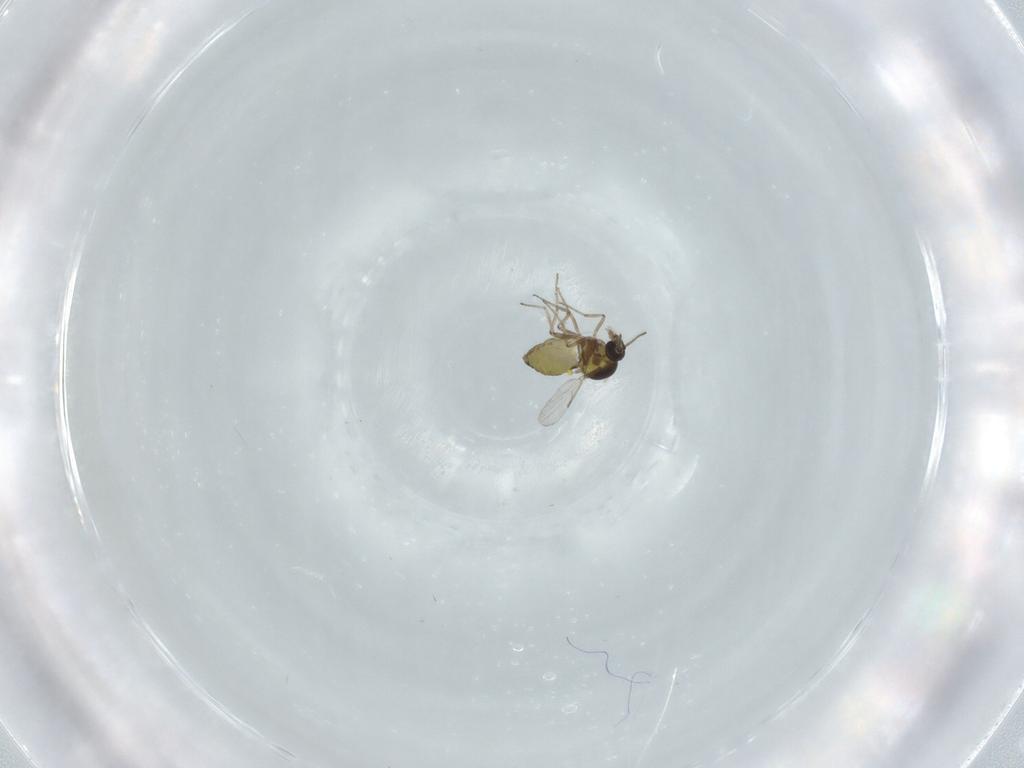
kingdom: Animalia
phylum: Arthropoda
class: Insecta
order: Diptera
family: Ceratopogonidae
